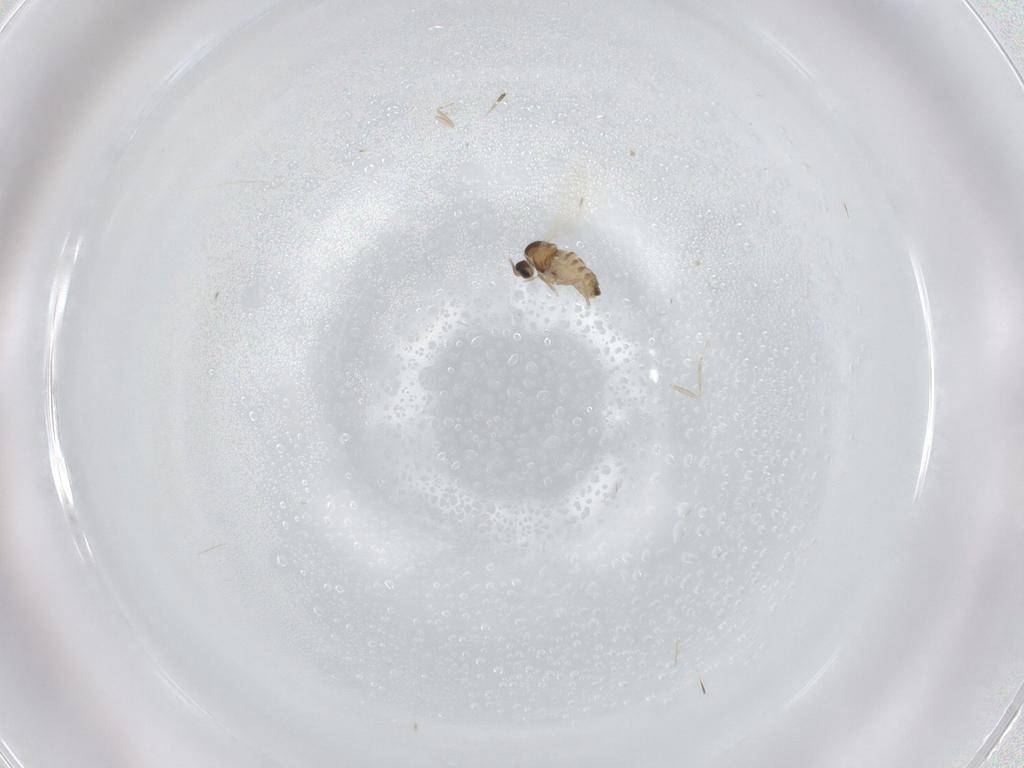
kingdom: Animalia
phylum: Arthropoda
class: Insecta
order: Diptera
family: Cecidomyiidae
